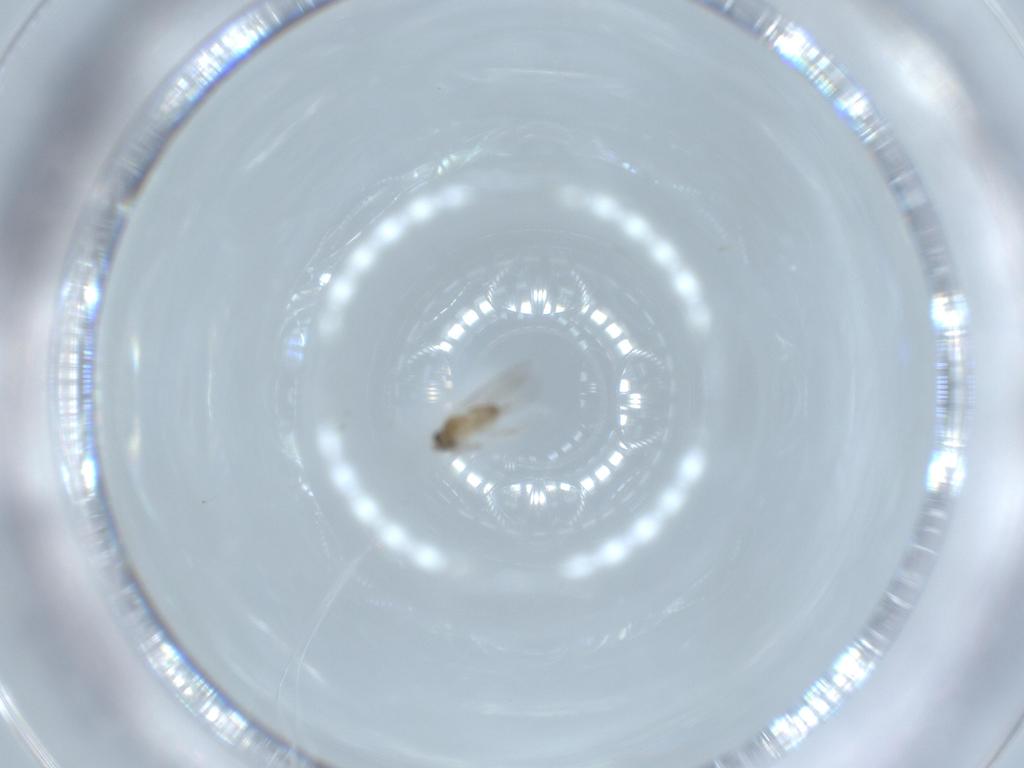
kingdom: Animalia
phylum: Arthropoda
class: Insecta
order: Diptera
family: Cecidomyiidae
